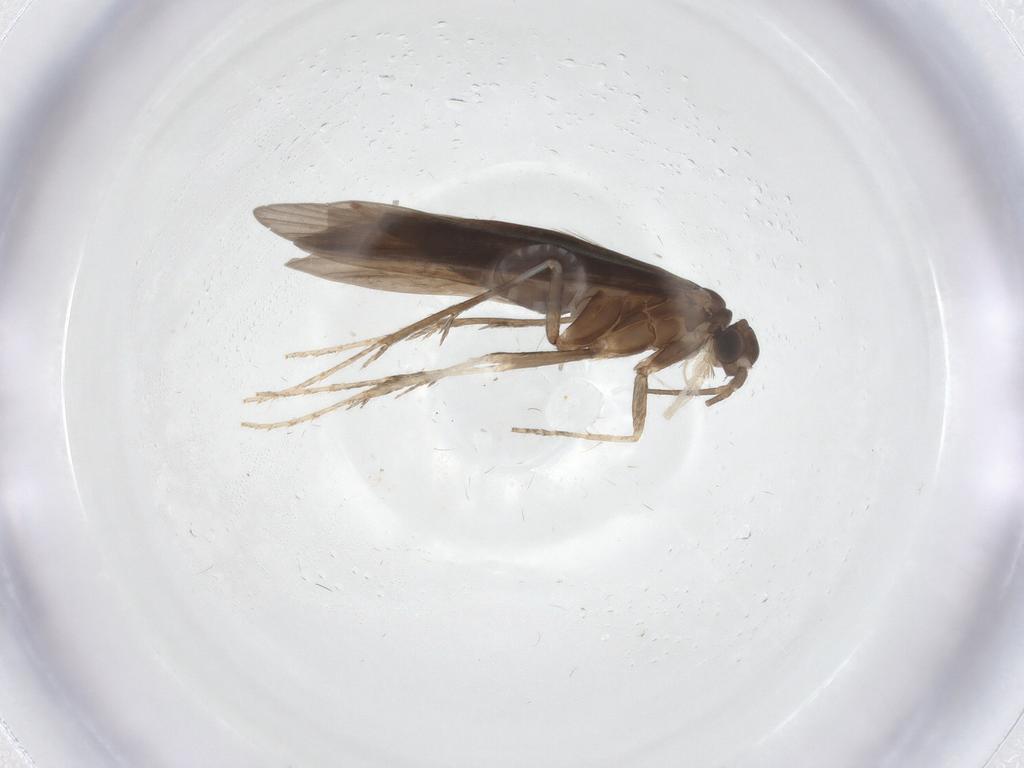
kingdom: Animalia
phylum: Arthropoda
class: Insecta
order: Trichoptera
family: Xiphocentronidae
